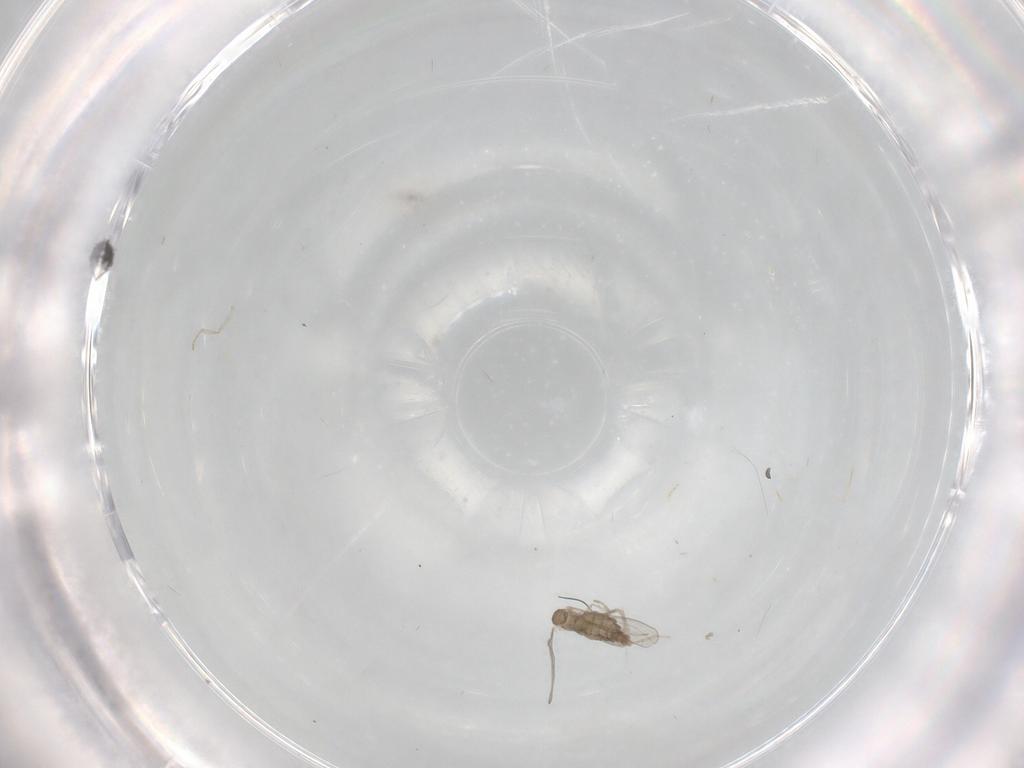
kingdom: Animalia
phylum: Arthropoda
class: Insecta
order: Diptera
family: Cecidomyiidae
